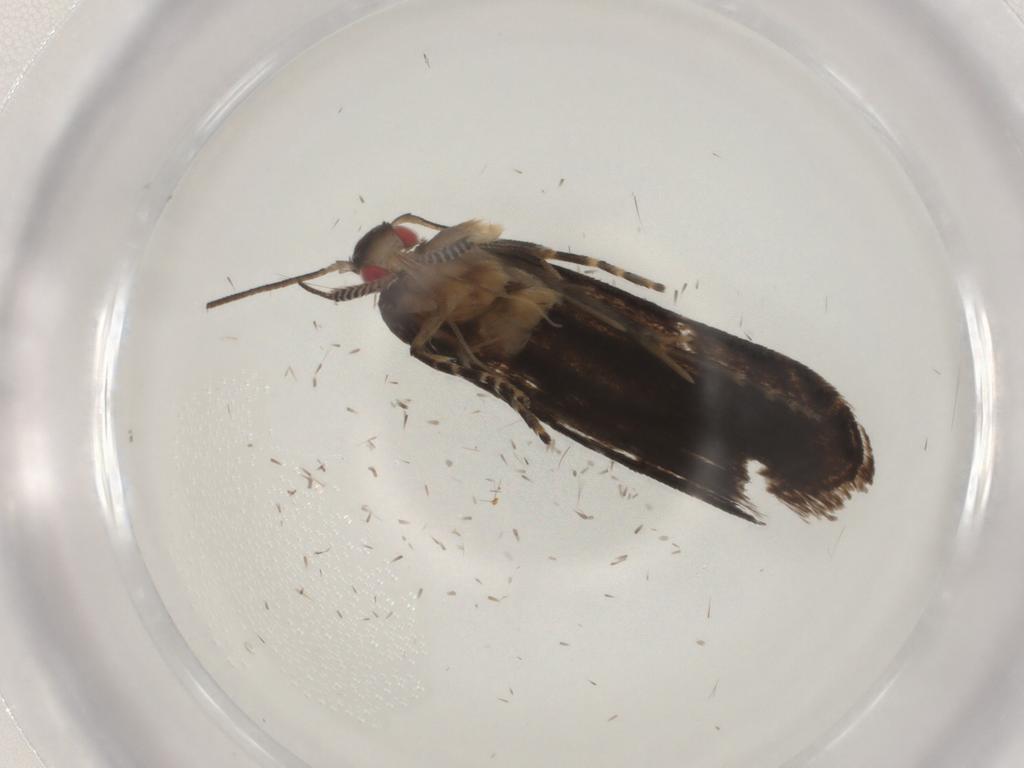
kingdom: Animalia
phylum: Arthropoda
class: Insecta
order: Lepidoptera
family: Gelechiidae
